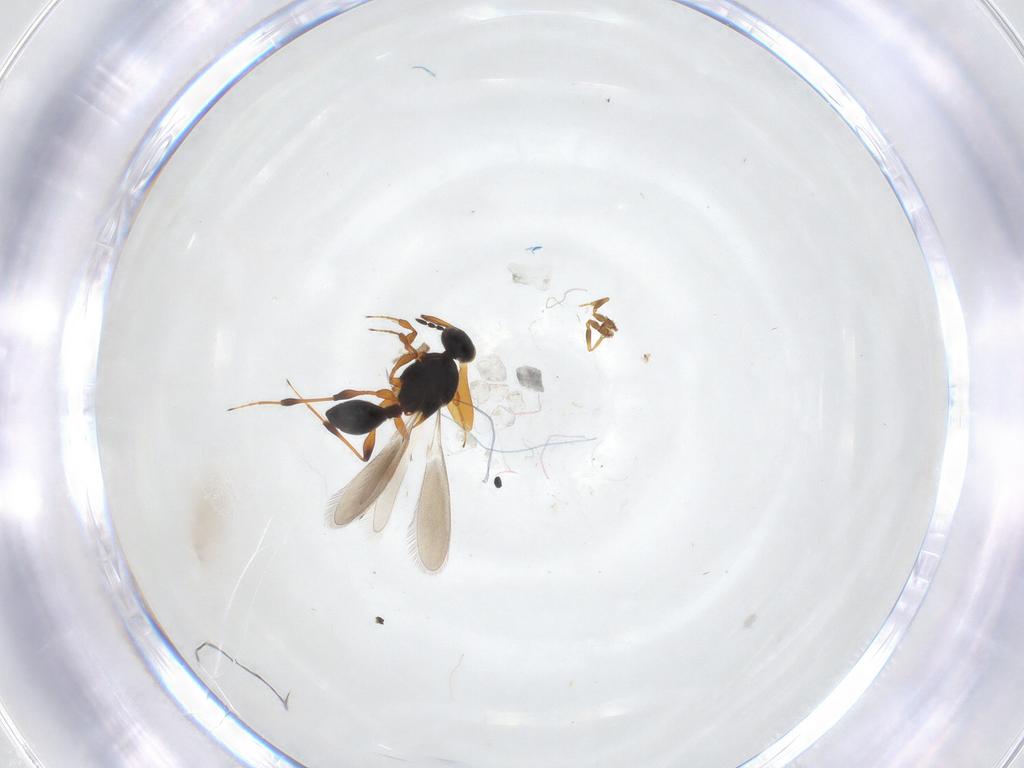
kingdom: Animalia
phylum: Arthropoda
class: Insecta
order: Hymenoptera
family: Platygastridae
